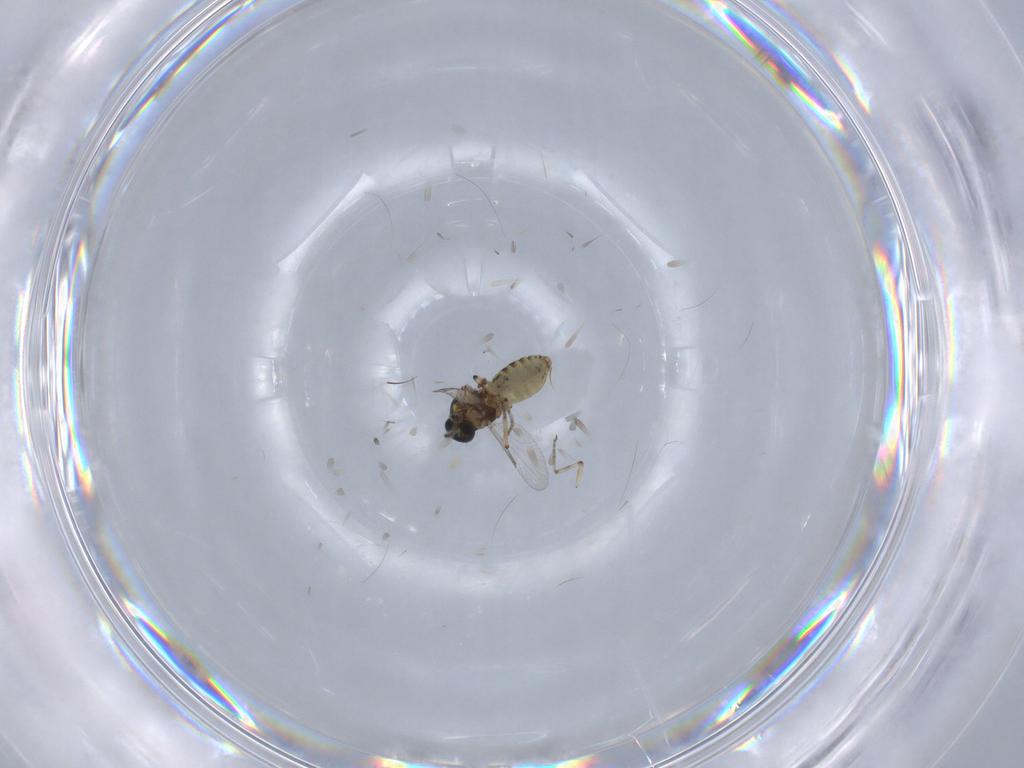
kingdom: Animalia
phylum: Arthropoda
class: Insecta
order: Diptera
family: Ceratopogonidae
